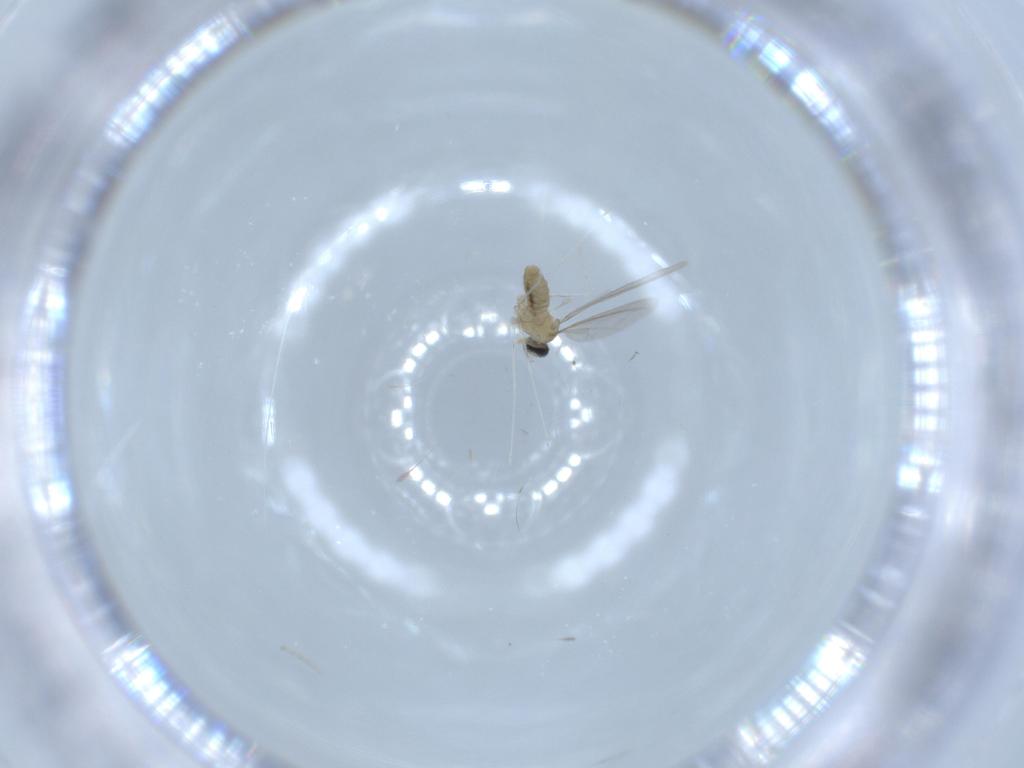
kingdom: Animalia
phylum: Arthropoda
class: Insecta
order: Diptera
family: Cecidomyiidae
